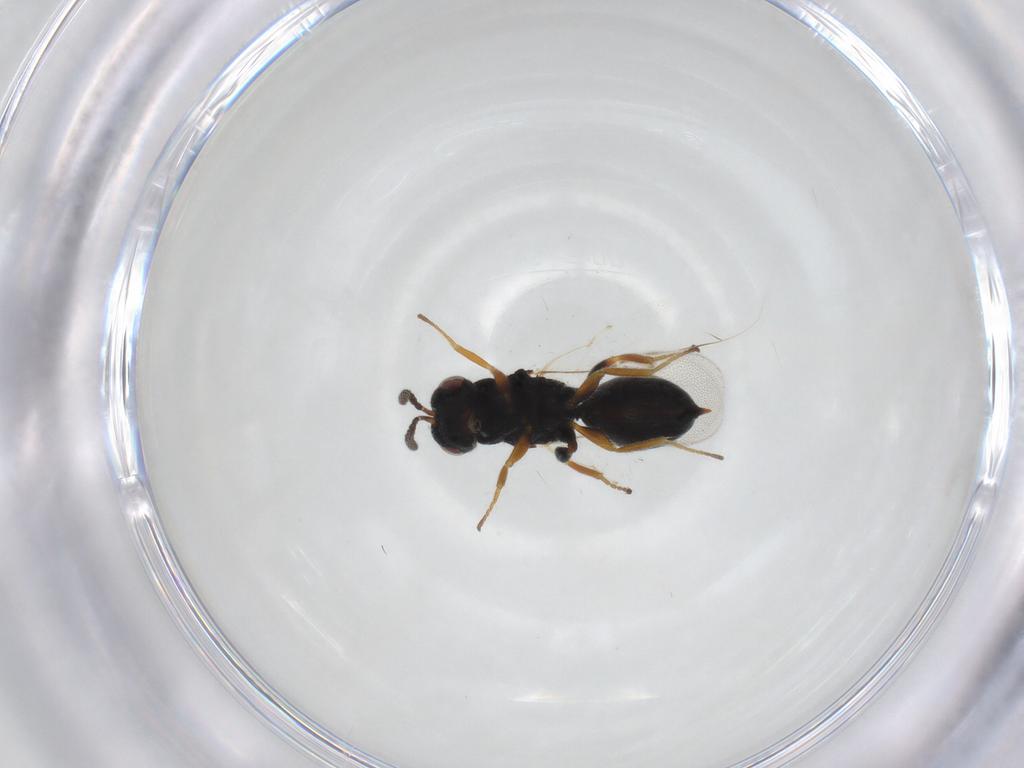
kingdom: Animalia
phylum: Arthropoda
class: Insecta
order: Hymenoptera
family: Eurytomidae
